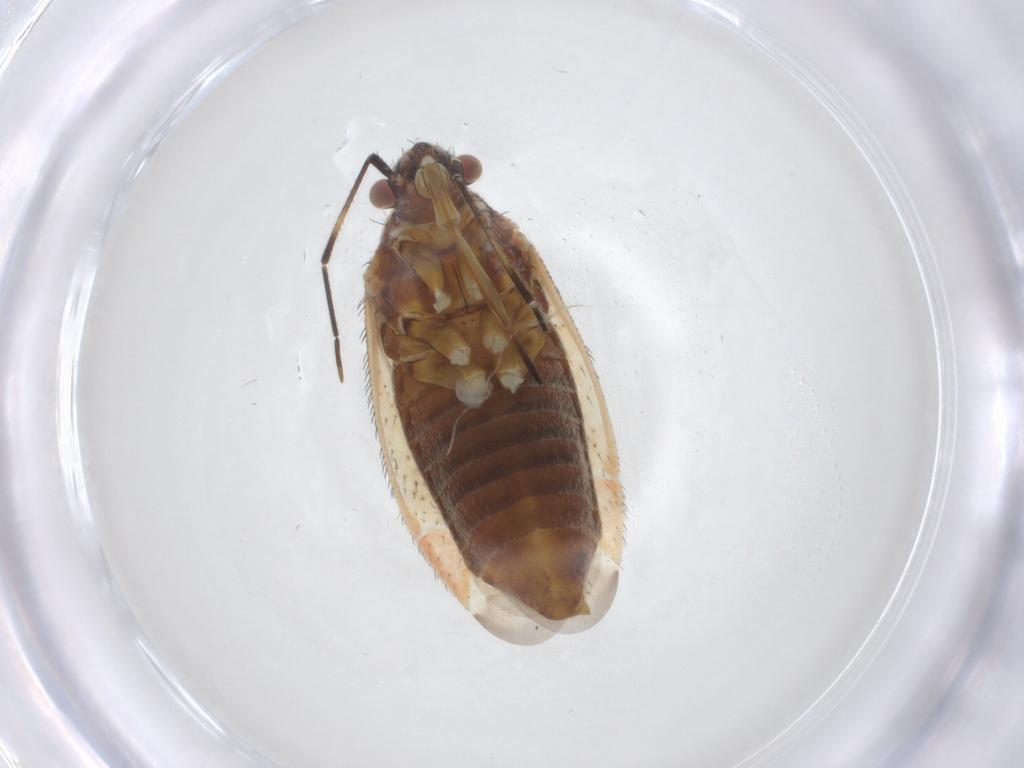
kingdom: Animalia
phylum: Arthropoda
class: Insecta
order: Hemiptera
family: Miridae
